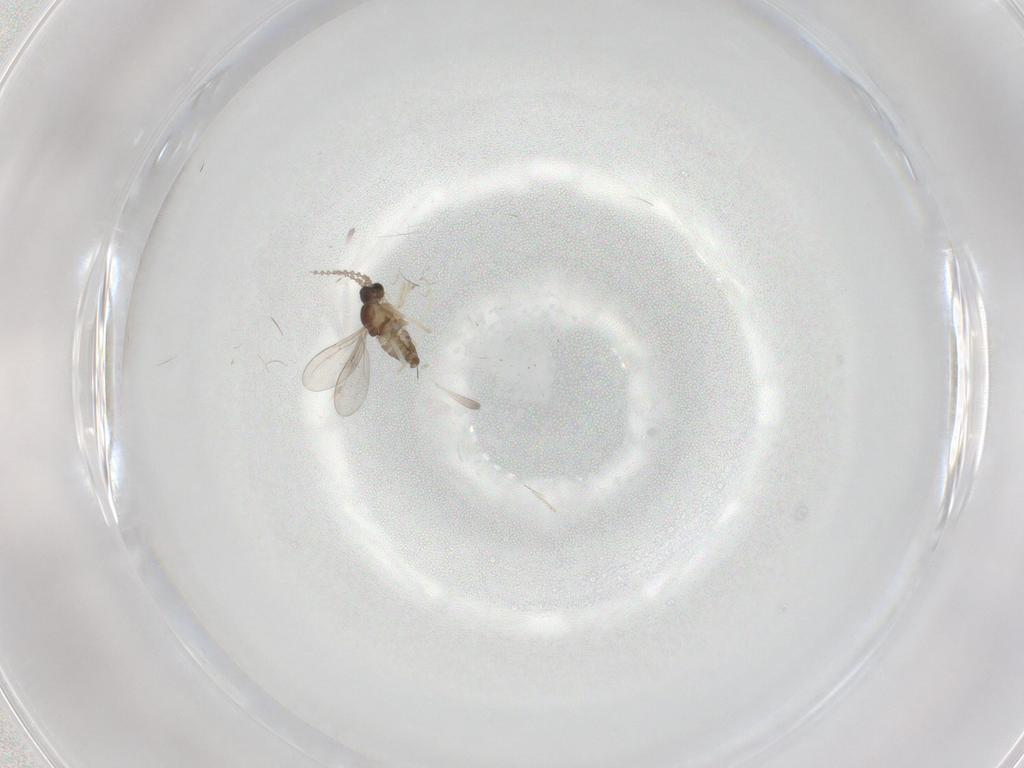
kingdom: Animalia
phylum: Arthropoda
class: Insecta
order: Diptera
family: Cecidomyiidae
